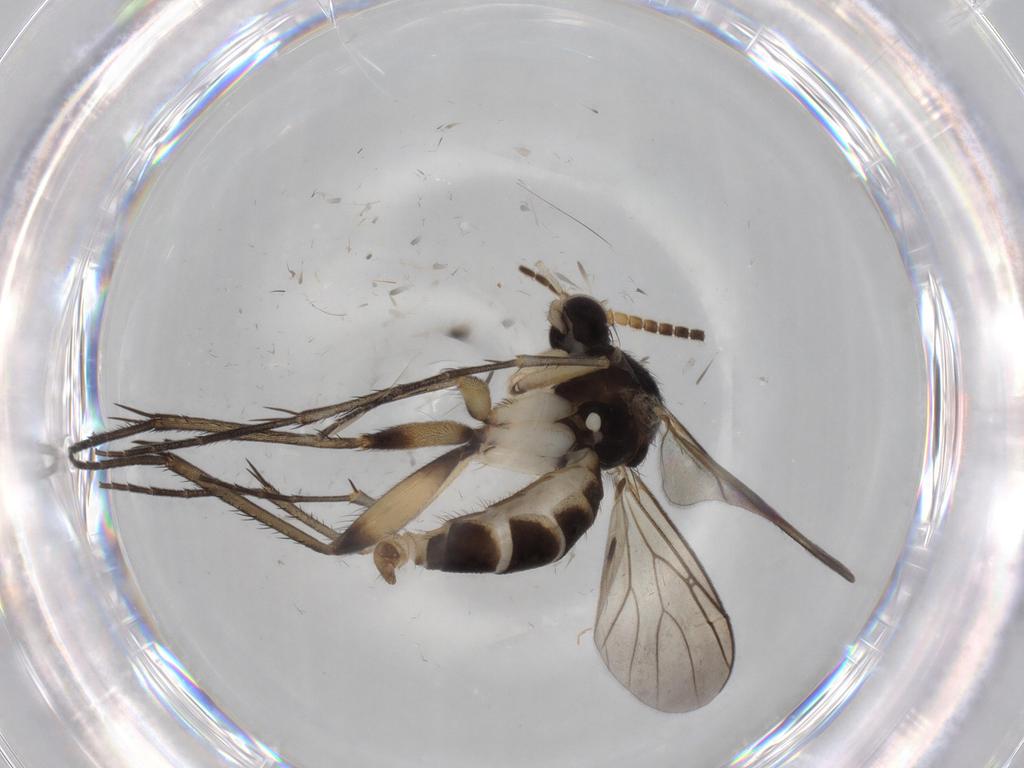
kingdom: Animalia
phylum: Arthropoda
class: Insecta
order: Diptera
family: Sciaridae
